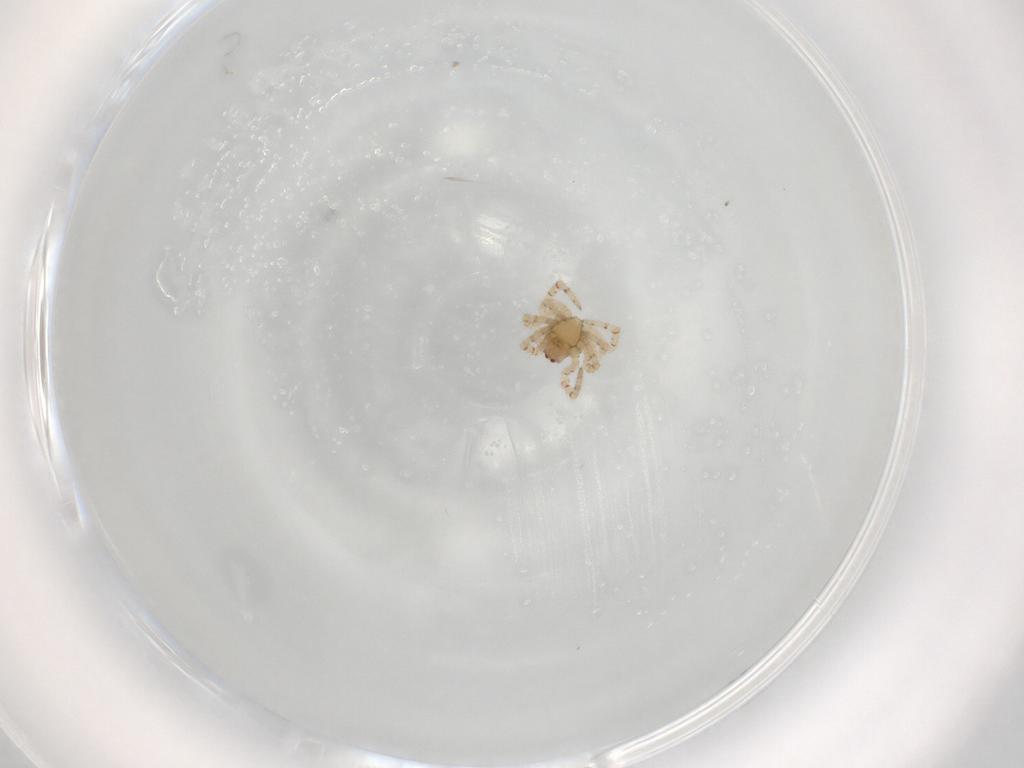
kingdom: Animalia
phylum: Arthropoda
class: Arachnida
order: Araneae
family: Theridiidae
